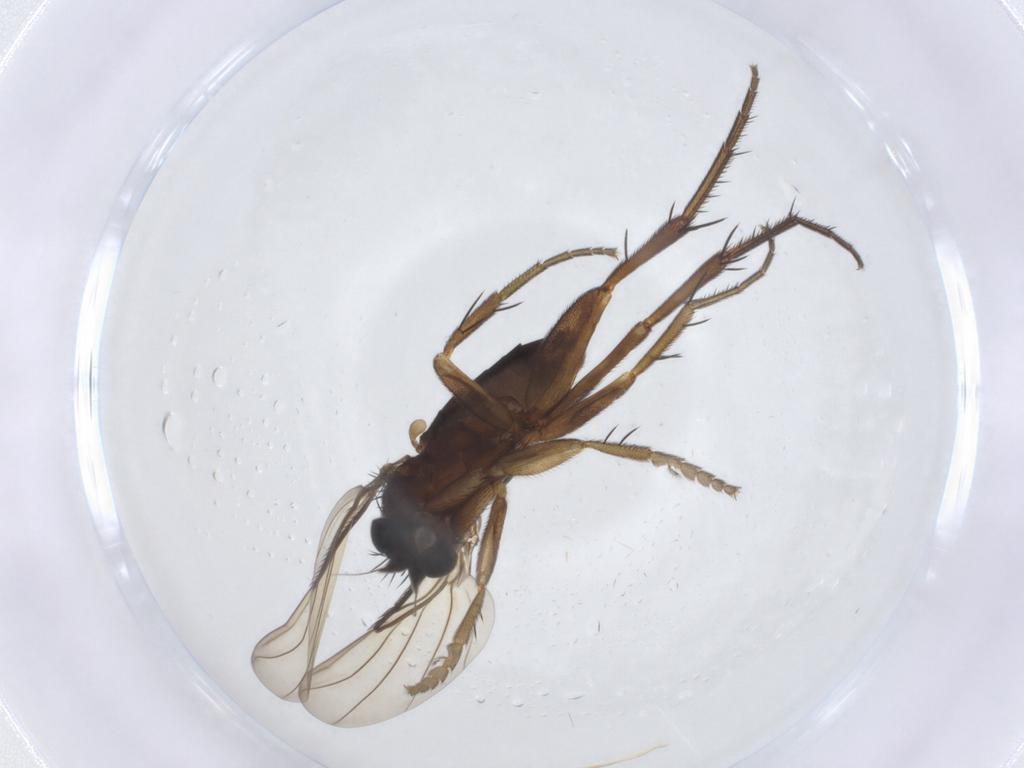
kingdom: Animalia
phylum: Arthropoda
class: Insecta
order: Diptera
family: Phoridae
